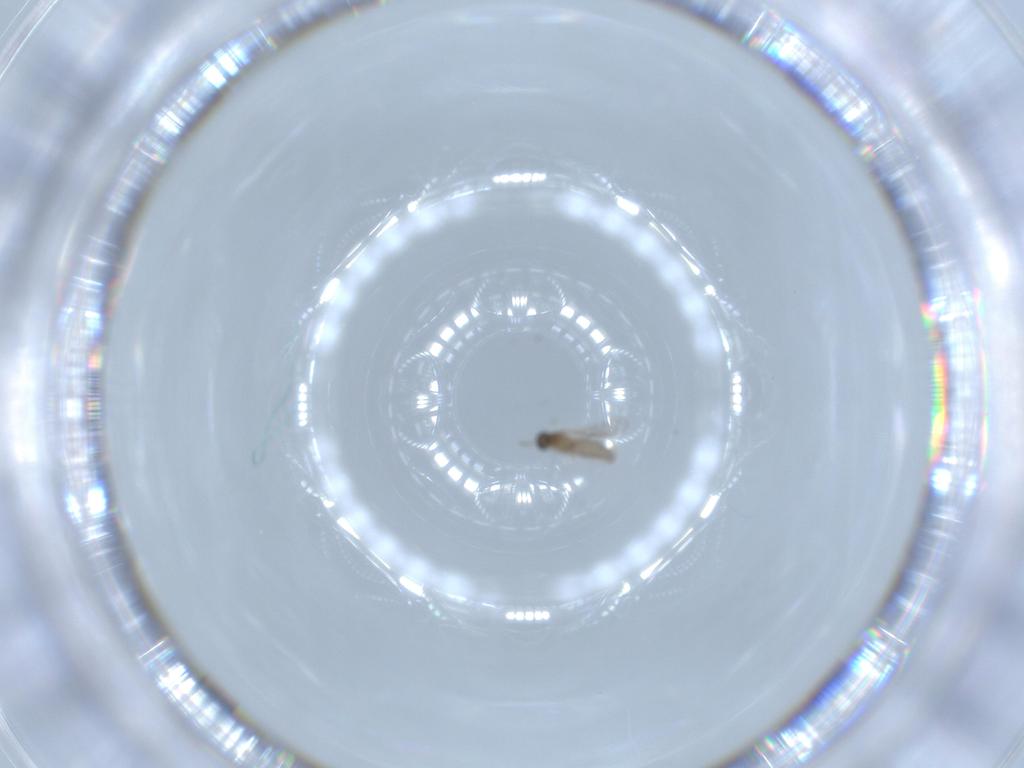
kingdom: Animalia
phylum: Arthropoda
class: Insecta
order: Diptera
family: Cecidomyiidae
